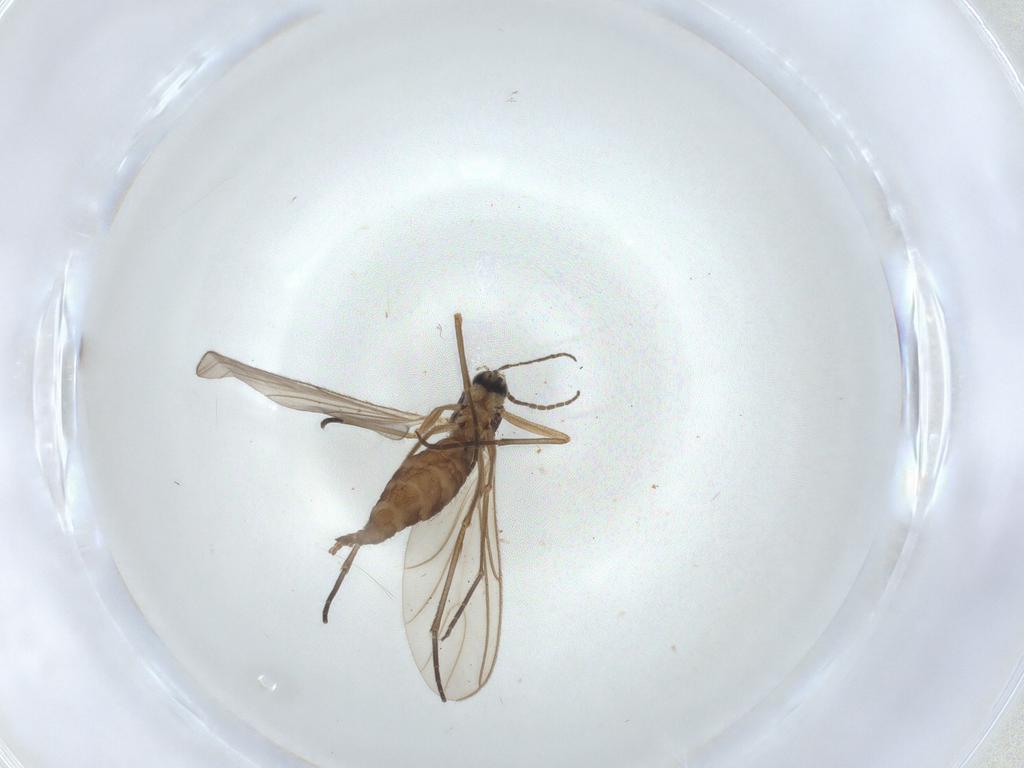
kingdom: Animalia
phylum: Arthropoda
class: Insecta
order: Diptera
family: Sciaridae
